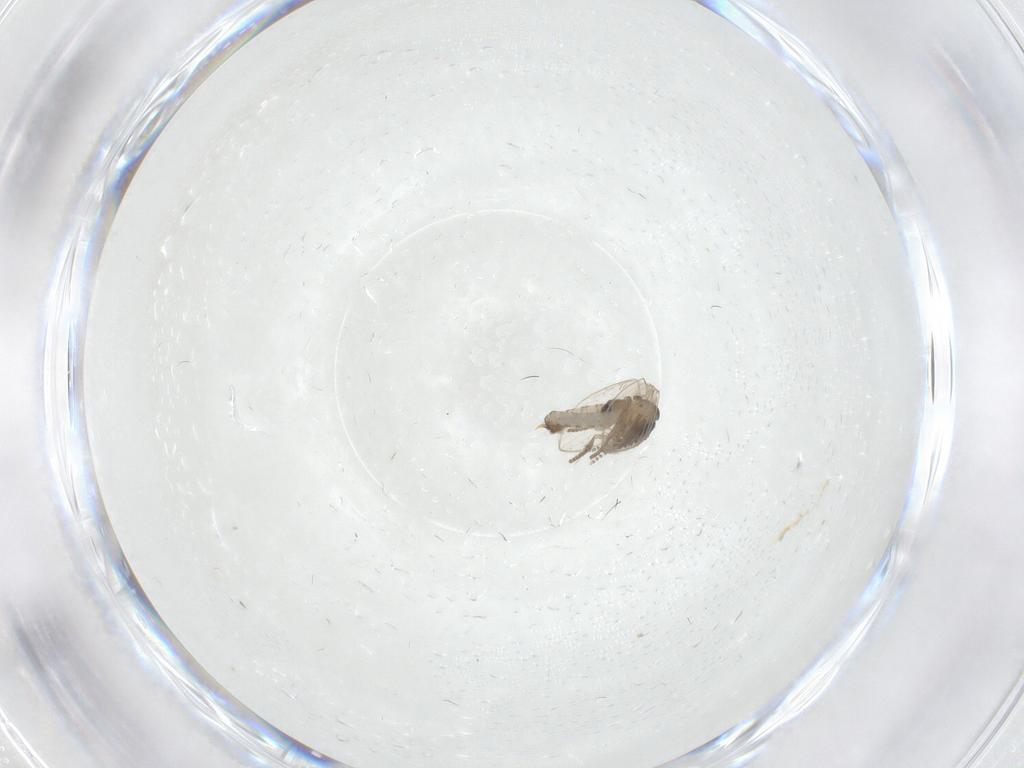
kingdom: Animalia
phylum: Arthropoda
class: Insecta
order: Diptera
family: Psychodidae
